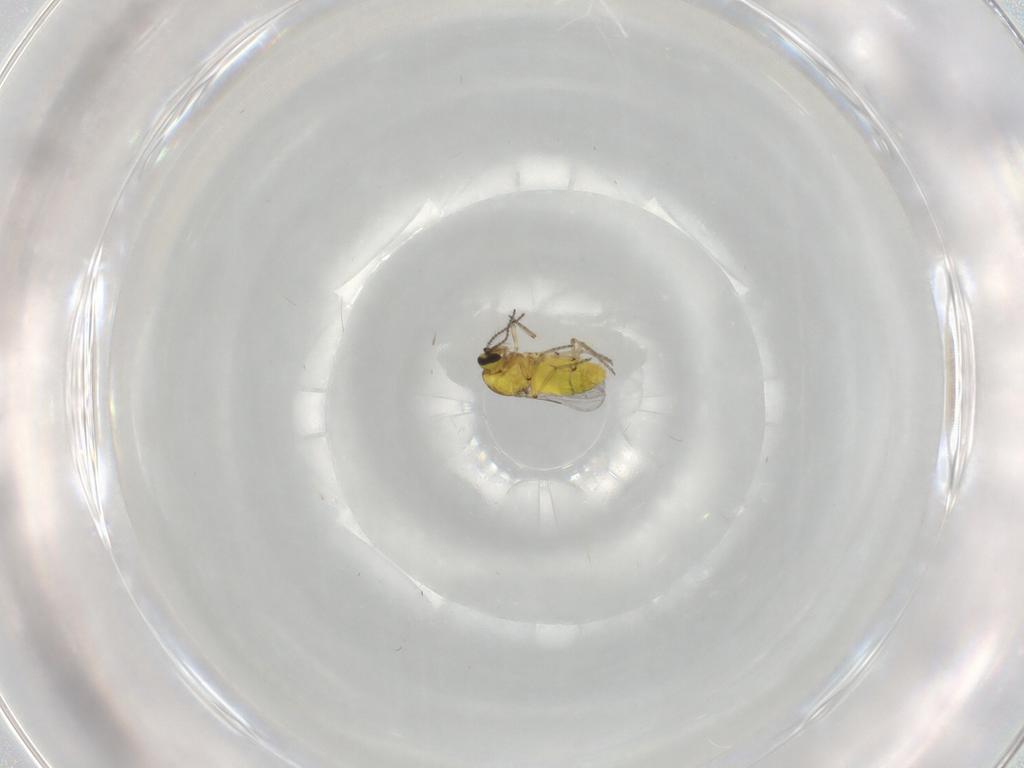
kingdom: Animalia
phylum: Arthropoda
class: Insecta
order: Diptera
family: Ceratopogonidae
